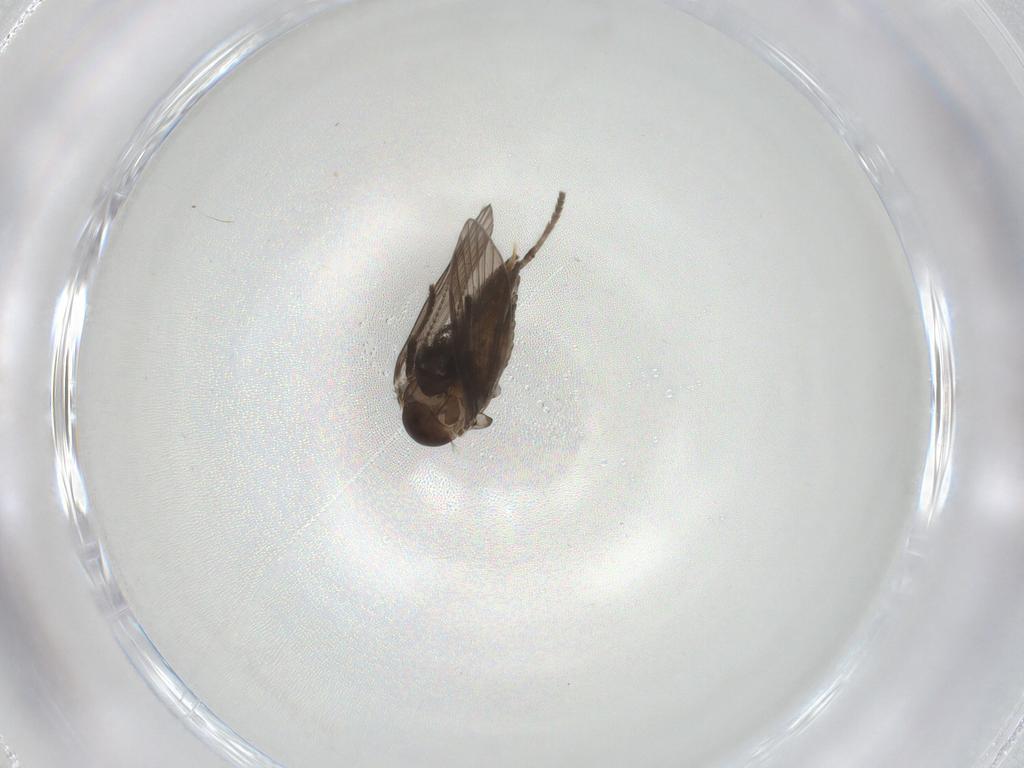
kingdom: Animalia
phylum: Arthropoda
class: Insecta
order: Diptera
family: Psychodidae
